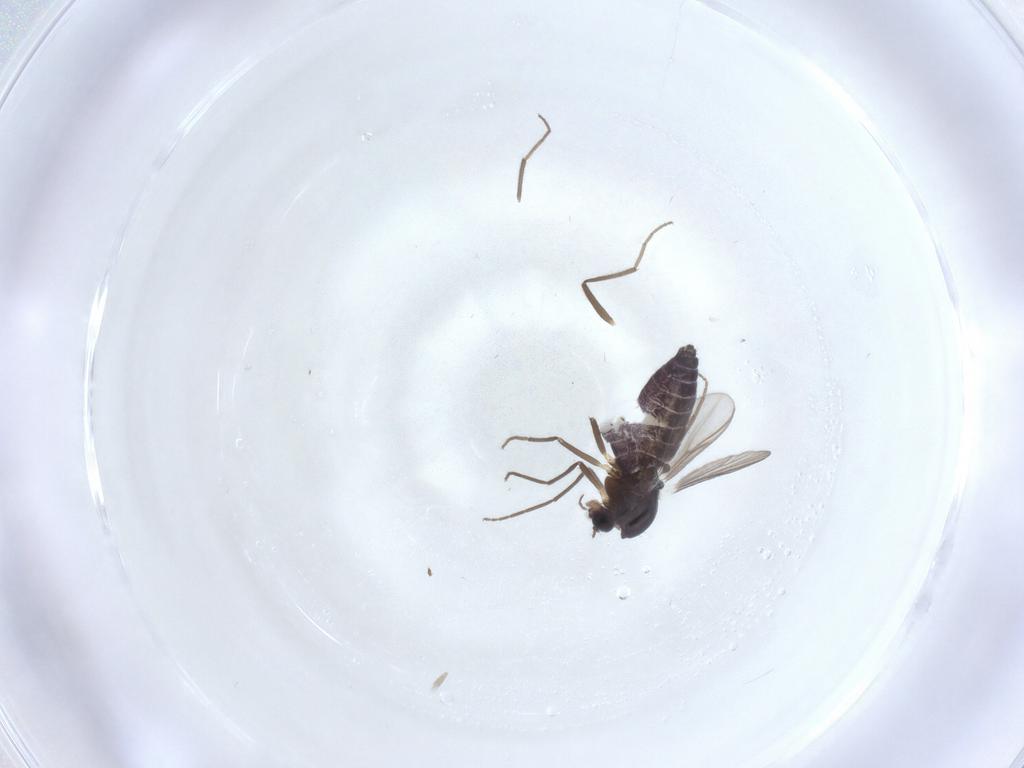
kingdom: Animalia
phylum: Arthropoda
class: Insecta
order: Diptera
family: Chironomidae
